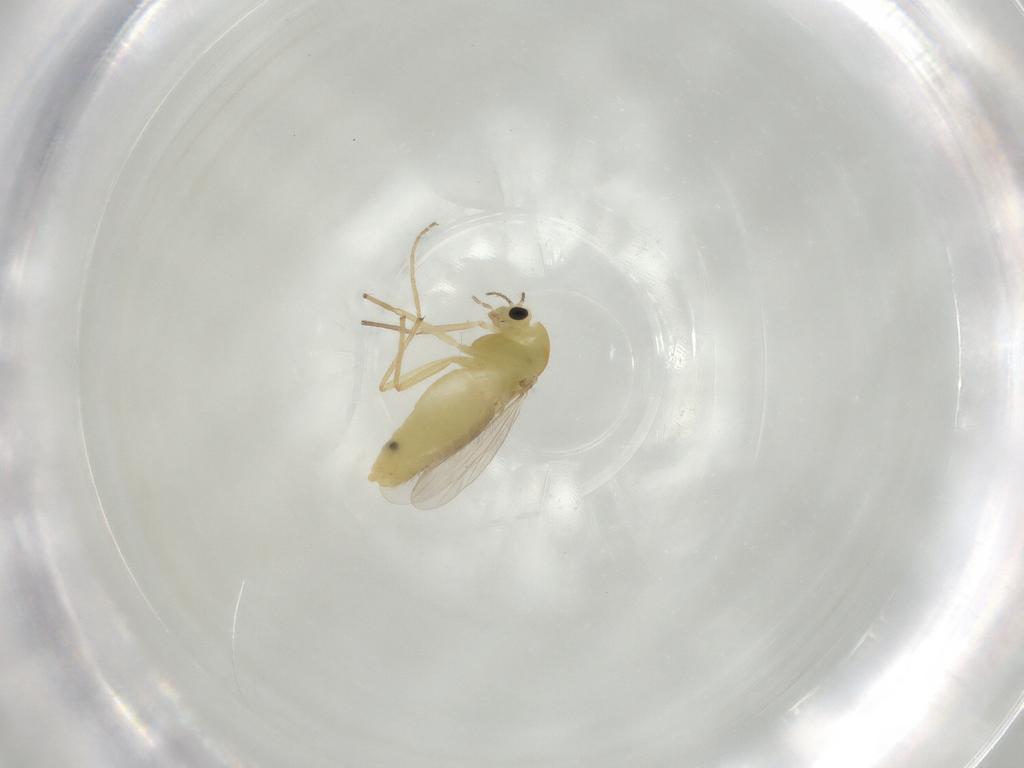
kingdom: Animalia
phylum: Arthropoda
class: Insecta
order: Diptera
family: Chironomidae
